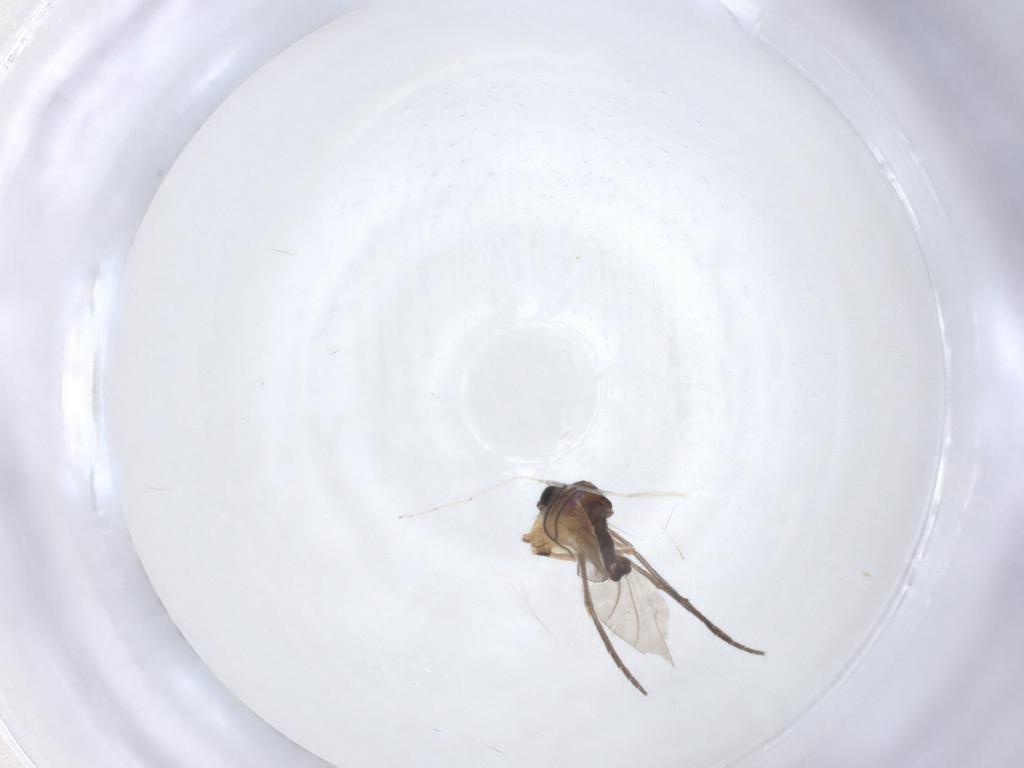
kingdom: Animalia
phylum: Arthropoda
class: Insecta
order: Diptera
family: Sciaridae
